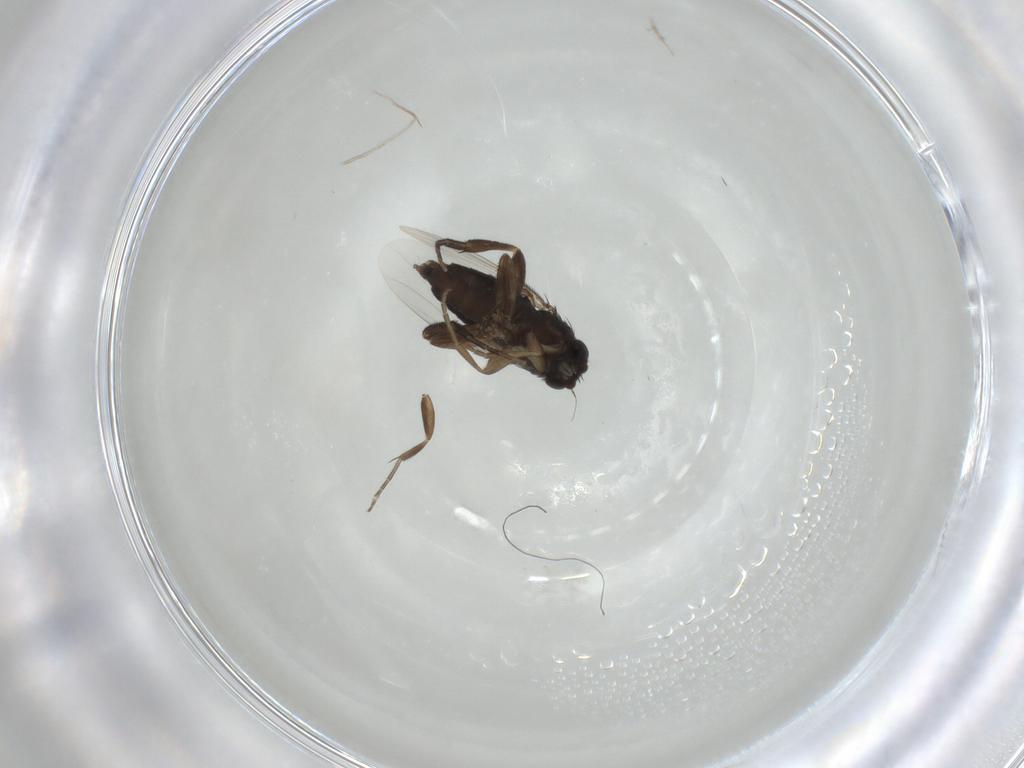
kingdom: Animalia
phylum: Arthropoda
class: Insecta
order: Diptera
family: Phoridae
